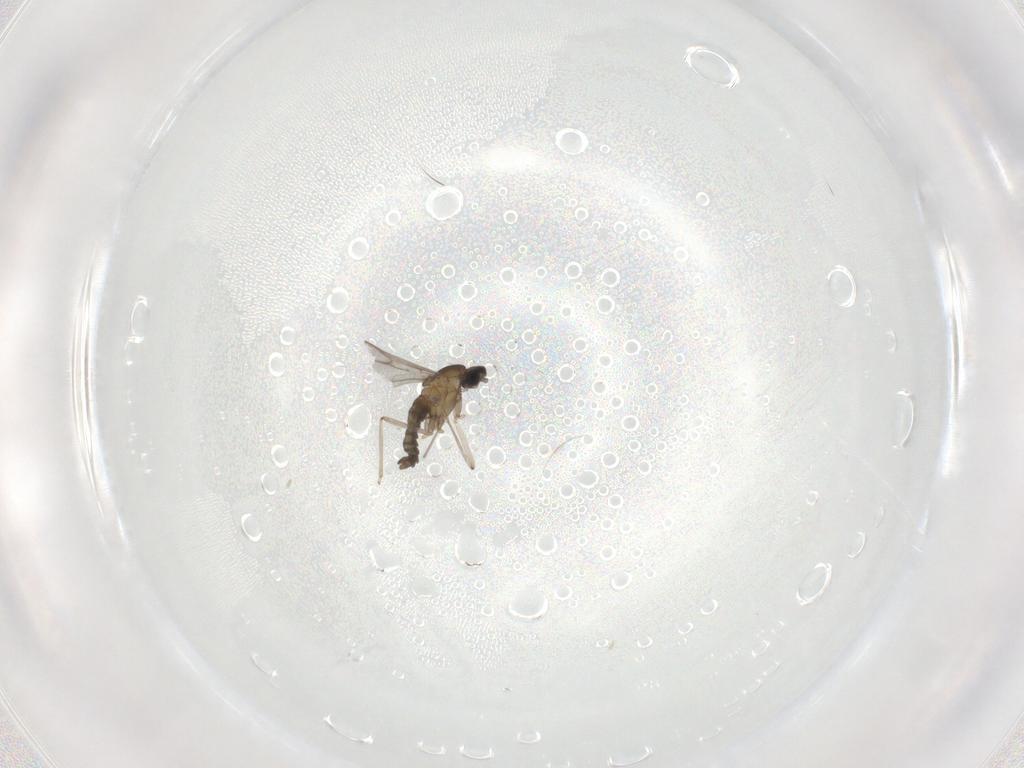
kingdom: Animalia
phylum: Arthropoda
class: Insecta
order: Diptera
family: Cecidomyiidae
